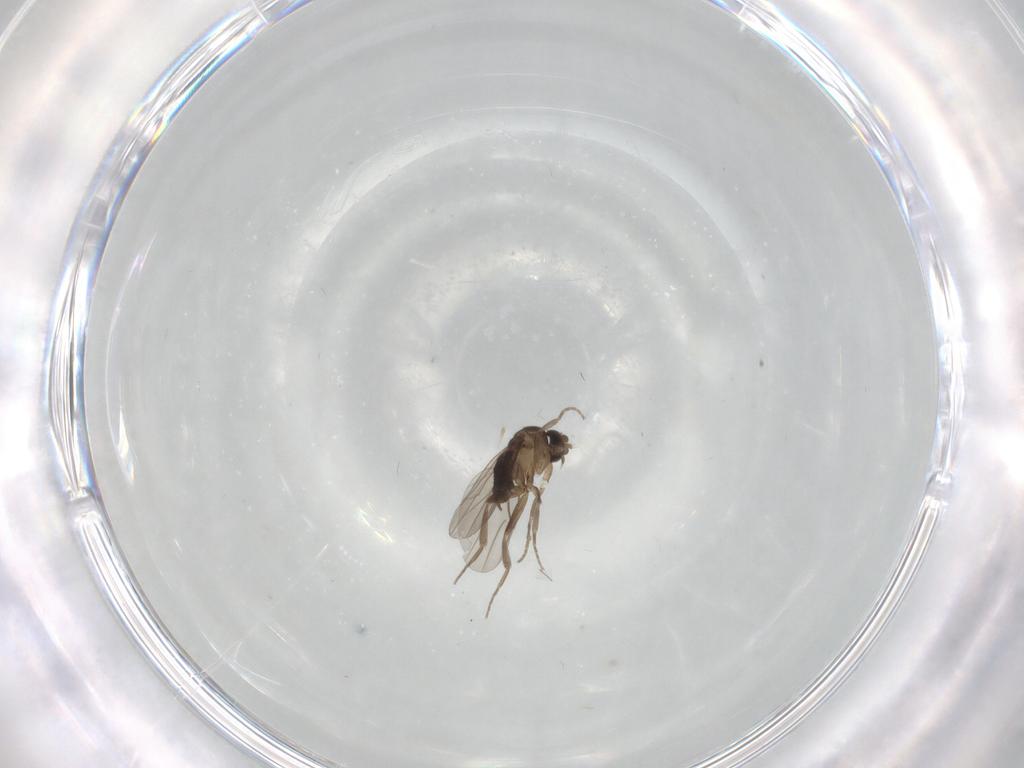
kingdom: Animalia
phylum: Arthropoda
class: Insecta
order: Diptera
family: Chironomidae
